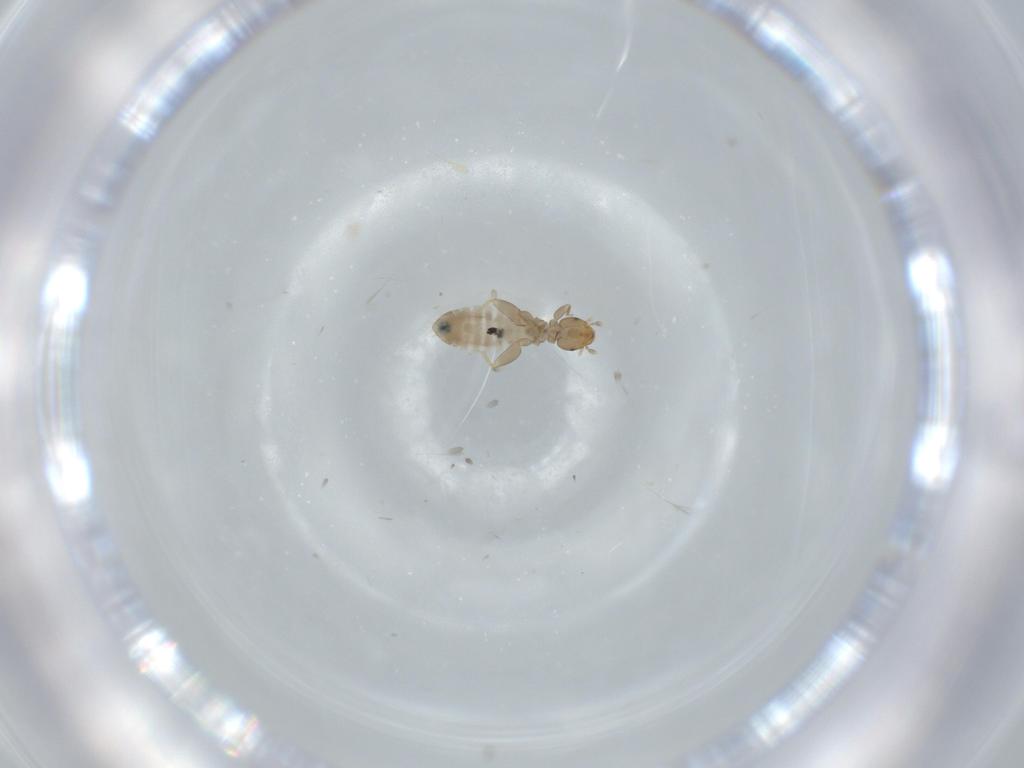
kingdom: Animalia
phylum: Arthropoda
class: Insecta
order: Psocodea
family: Liposcelididae
